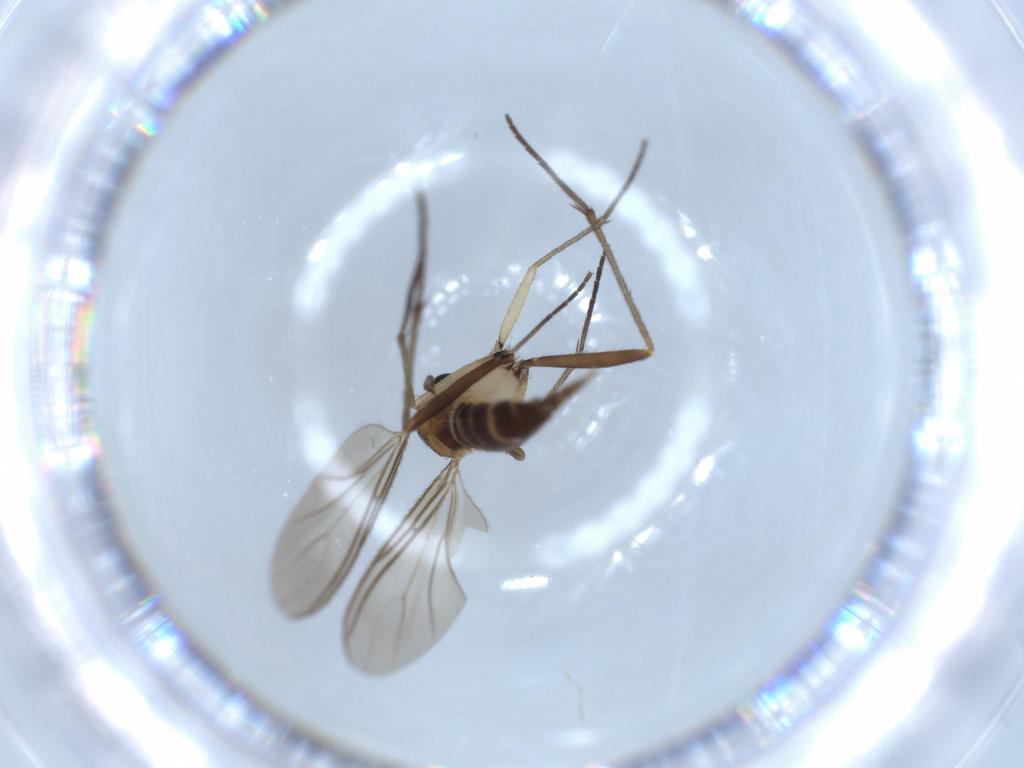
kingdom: Animalia
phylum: Arthropoda
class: Insecta
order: Diptera
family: Sciaridae
